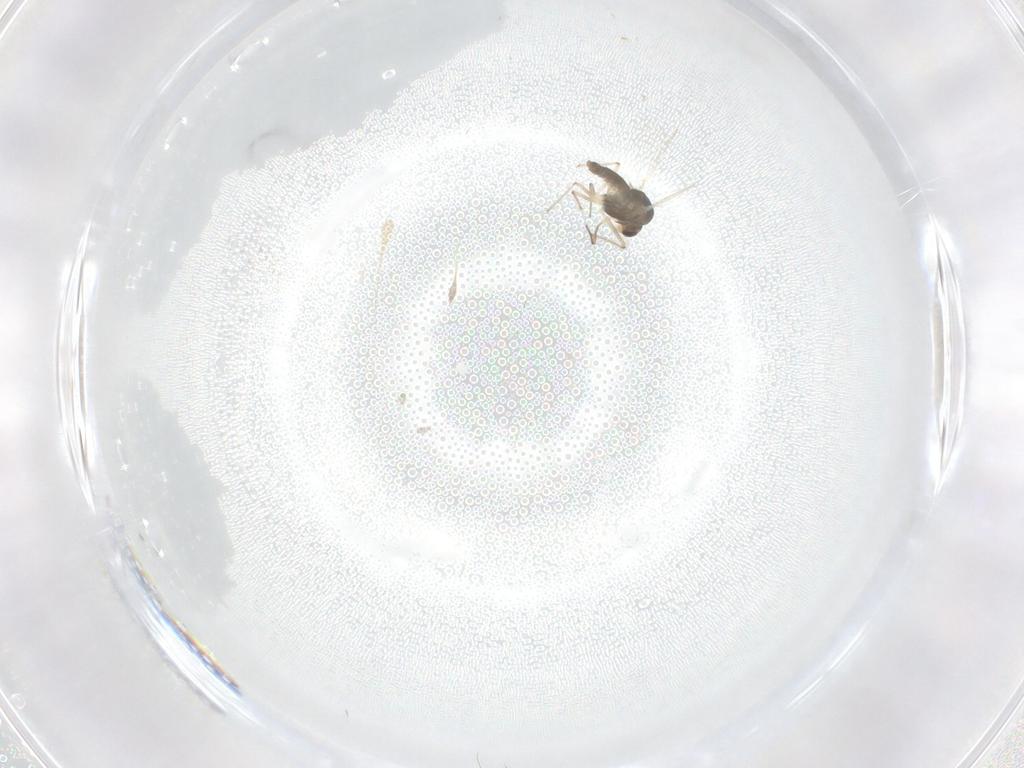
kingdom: Animalia
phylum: Arthropoda
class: Insecta
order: Diptera
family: Chironomidae
